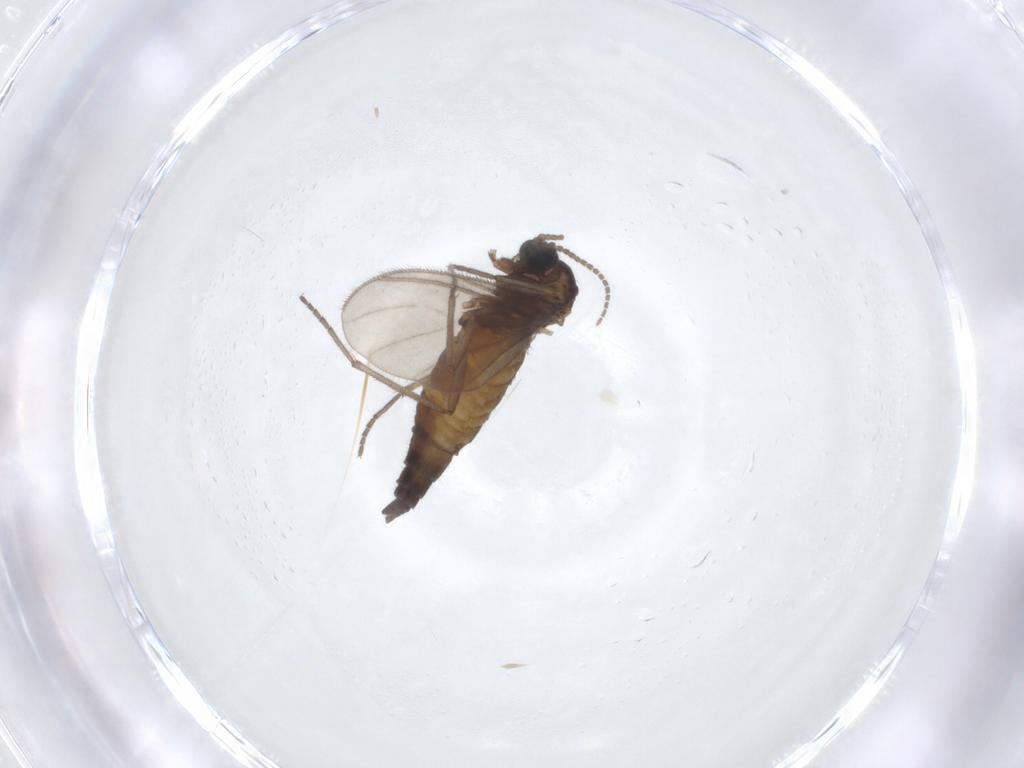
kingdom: Animalia
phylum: Arthropoda
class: Insecta
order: Diptera
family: Sciaridae
